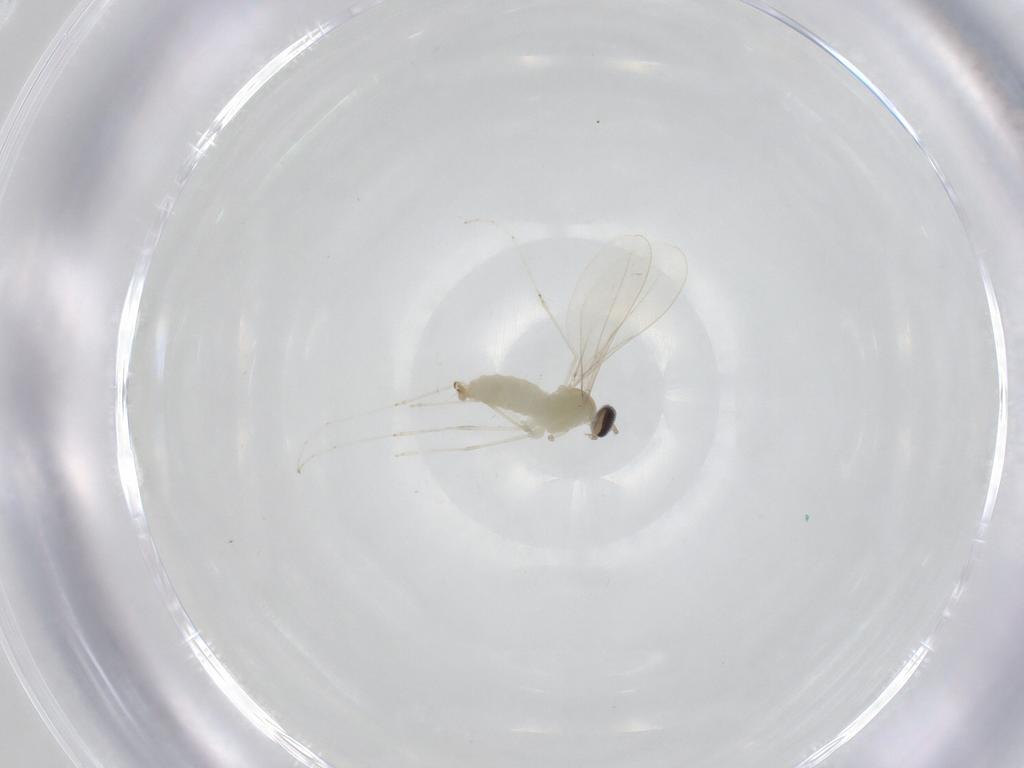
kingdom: Animalia
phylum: Arthropoda
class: Insecta
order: Diptera
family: Cecidomyiidae
